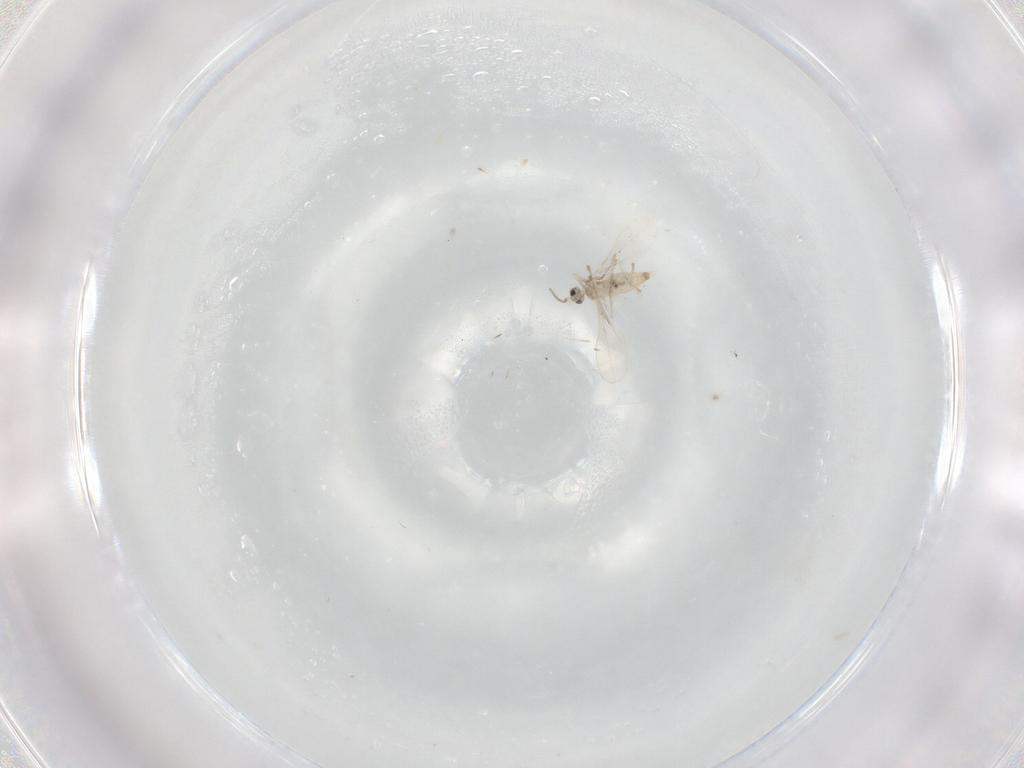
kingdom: Animalia
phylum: Arthropoda
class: Insecta
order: Diptera
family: Cecidomyiidae
